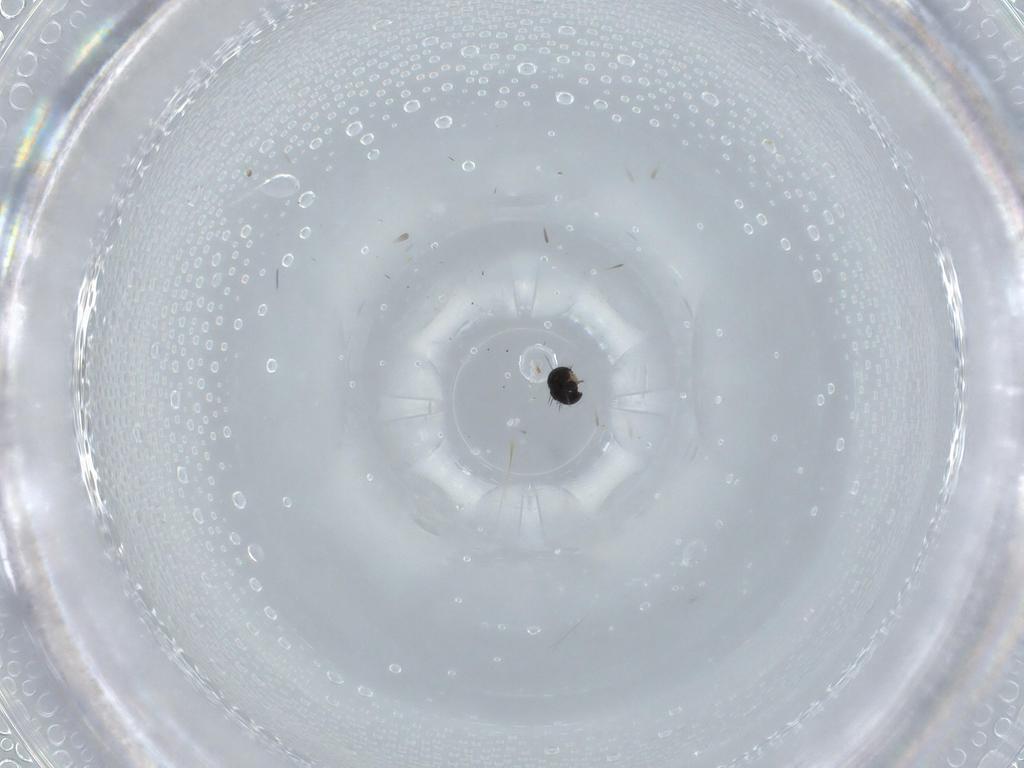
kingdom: Animalia
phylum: Arthropoda
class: Insecta
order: Diptera
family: Phoridae
